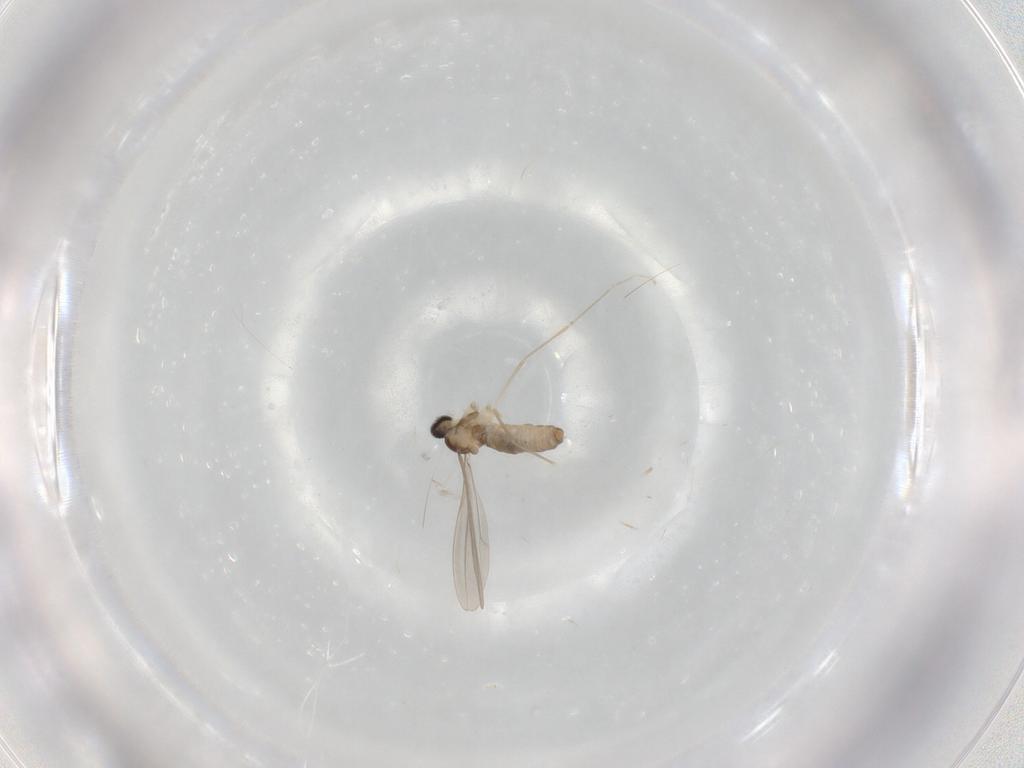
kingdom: Animalia
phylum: Arthropoda
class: Insecta
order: Diptera
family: Cecidomyiidae
